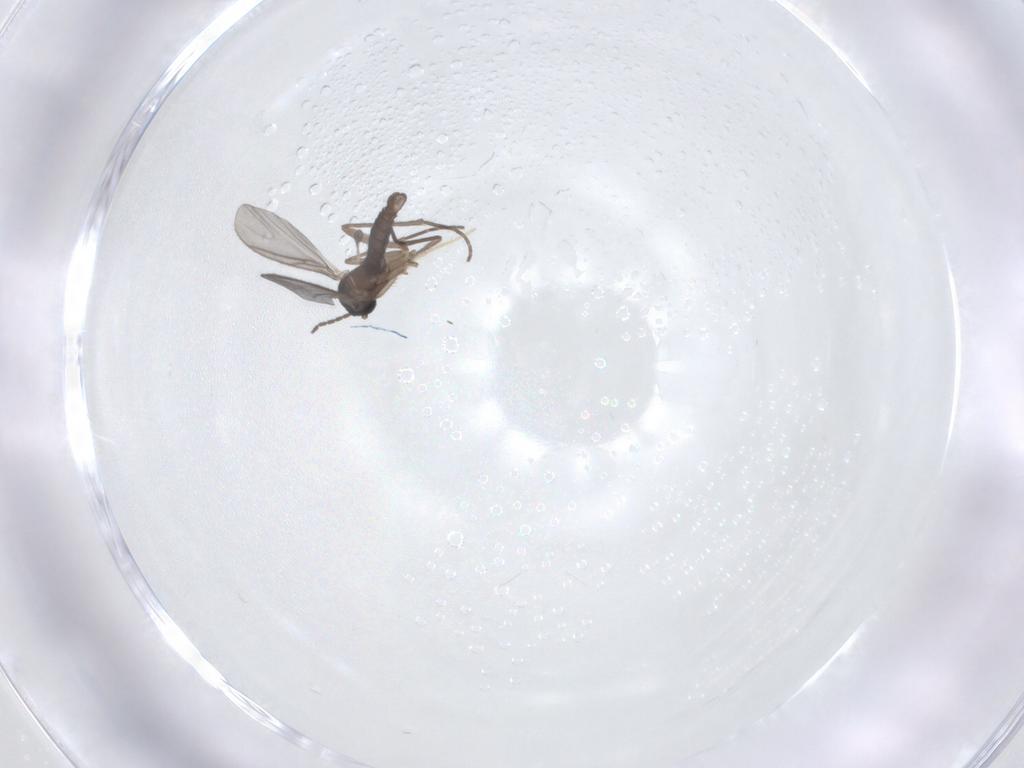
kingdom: Animalia
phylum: Arthropoda
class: Insecta
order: Diptera
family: Sciaridae
